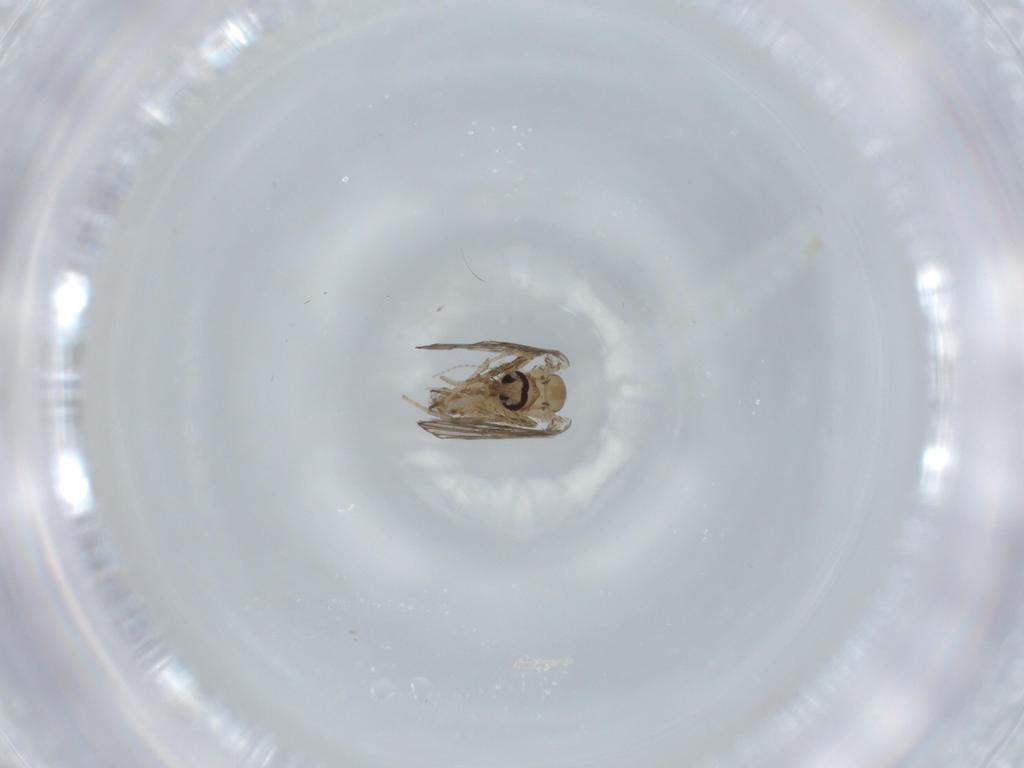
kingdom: Animalia
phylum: Arthropoda
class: Insecta
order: Diptera
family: Psychodidae
